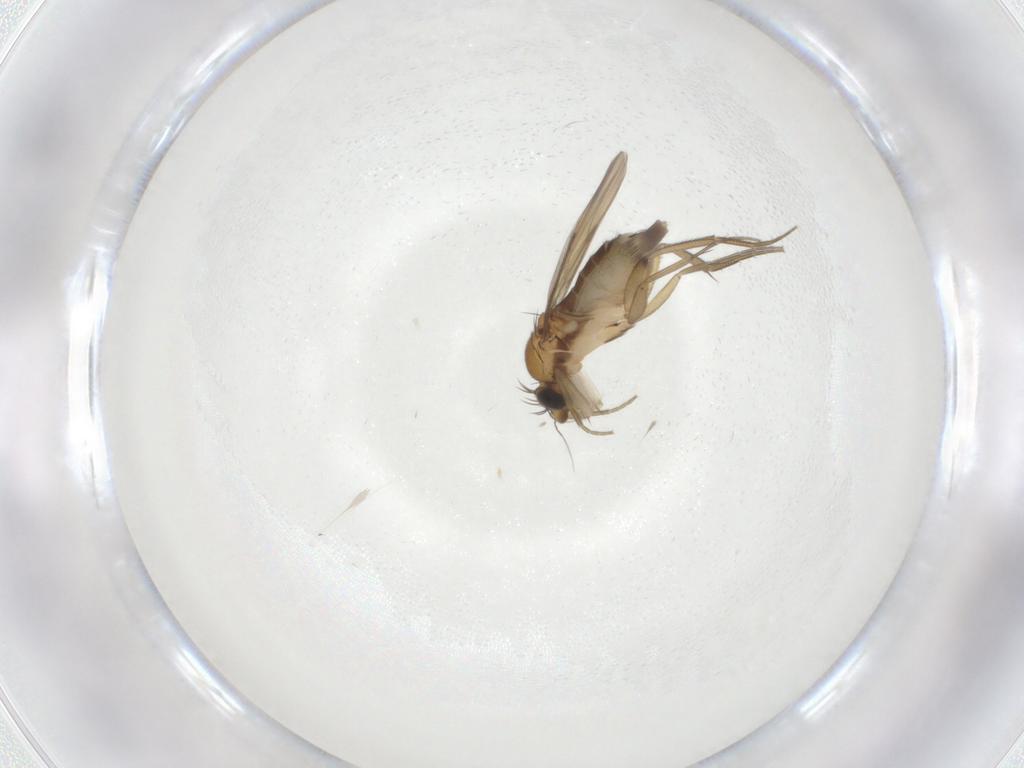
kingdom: Animalia
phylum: Arthropoda
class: Insecta
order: Diptera
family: Phoridae
